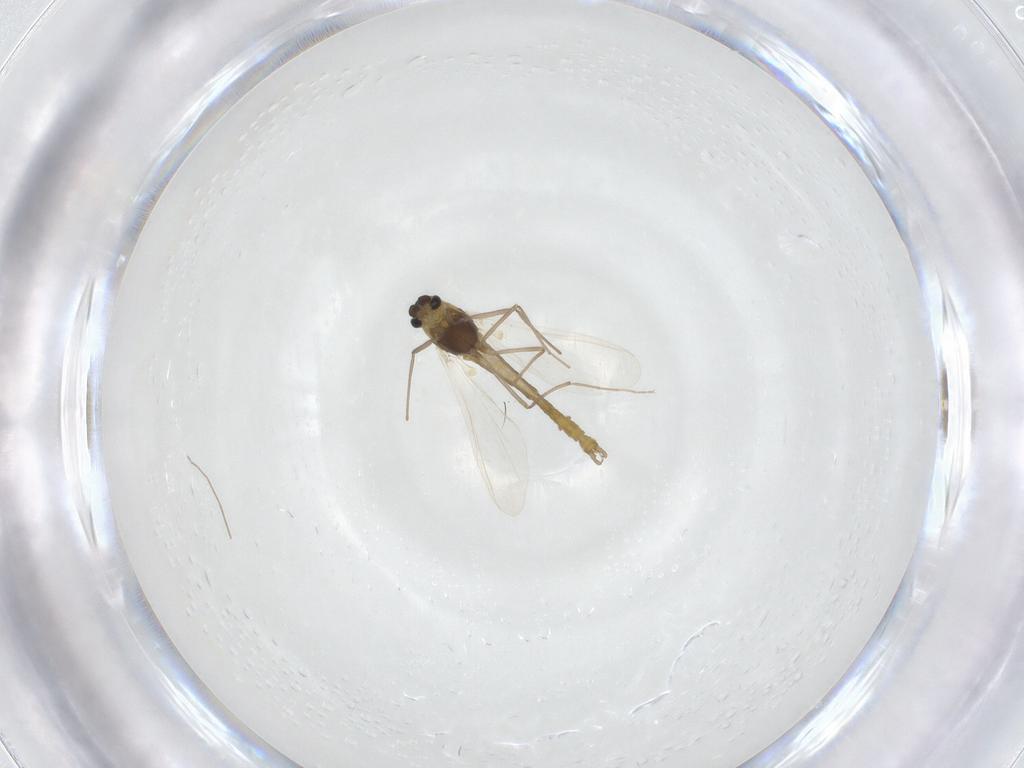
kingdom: Animalia
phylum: Arthropoda
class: Insecta
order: Diptera
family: Chironomidae
